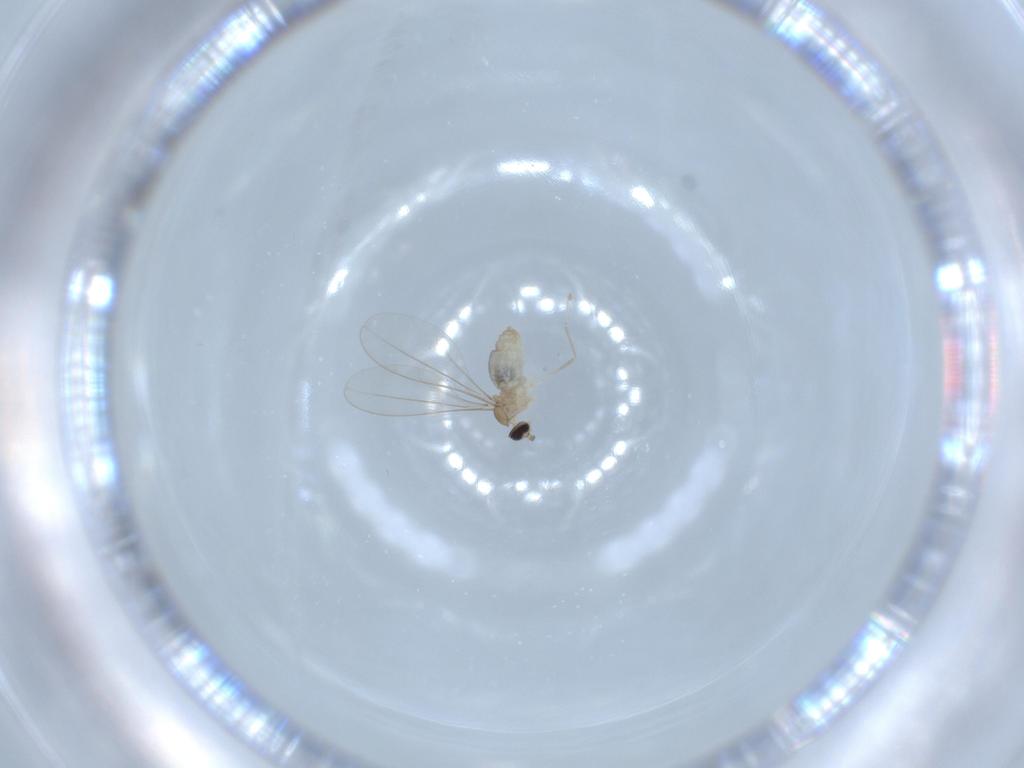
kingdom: Animalia
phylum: Arthropoda
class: Insecta
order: Diptera
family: Cecidomyiidae
